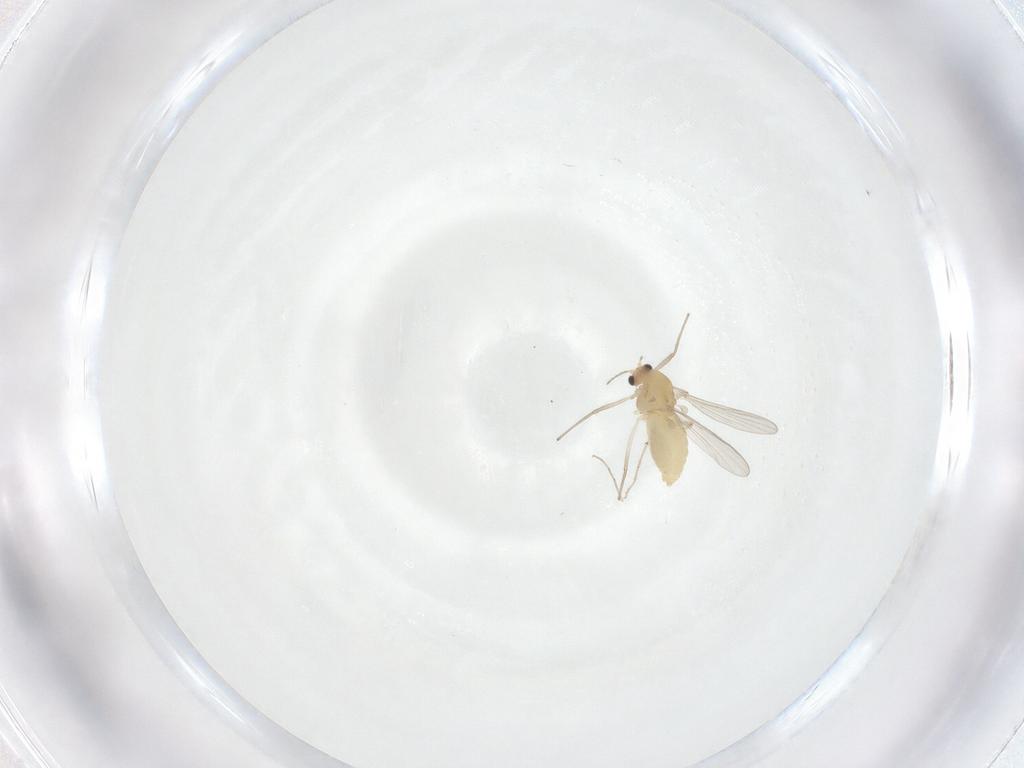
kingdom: Animalia
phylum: Arthropoda
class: Insecta
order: Diptera
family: Chironomidae
